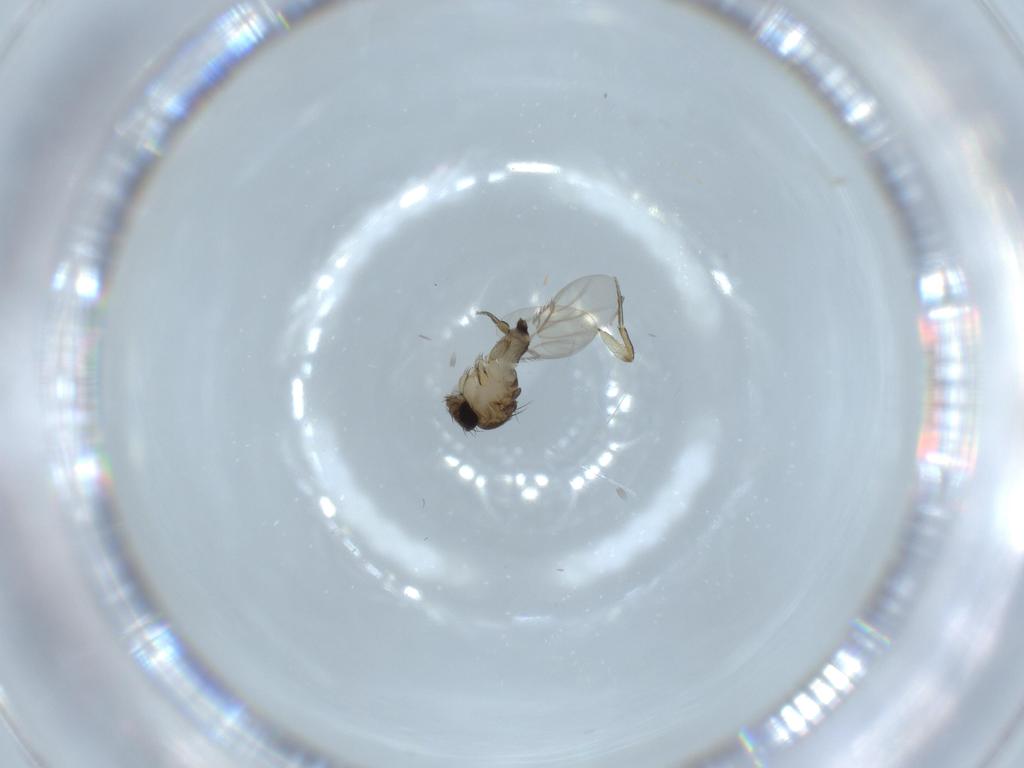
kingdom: Animalia
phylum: Arthropoda
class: Insecta
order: Diptera
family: Phoridae
